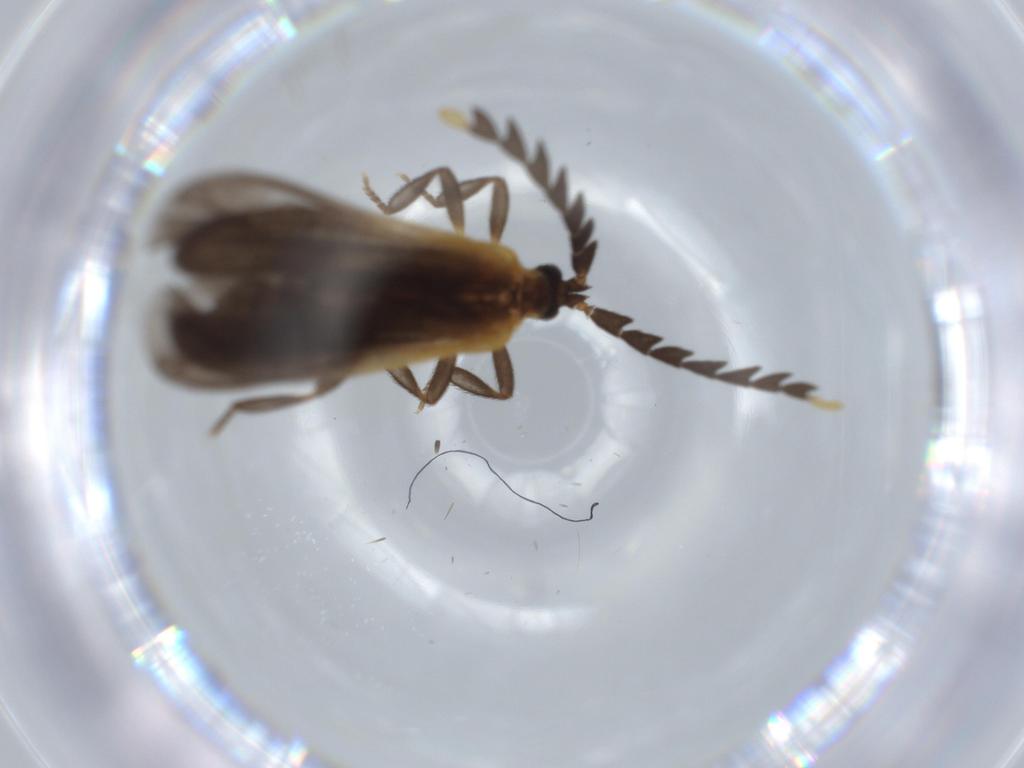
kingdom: Animalia
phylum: Arthropoda
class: Insecta
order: Coleoptera
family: Lycidae
